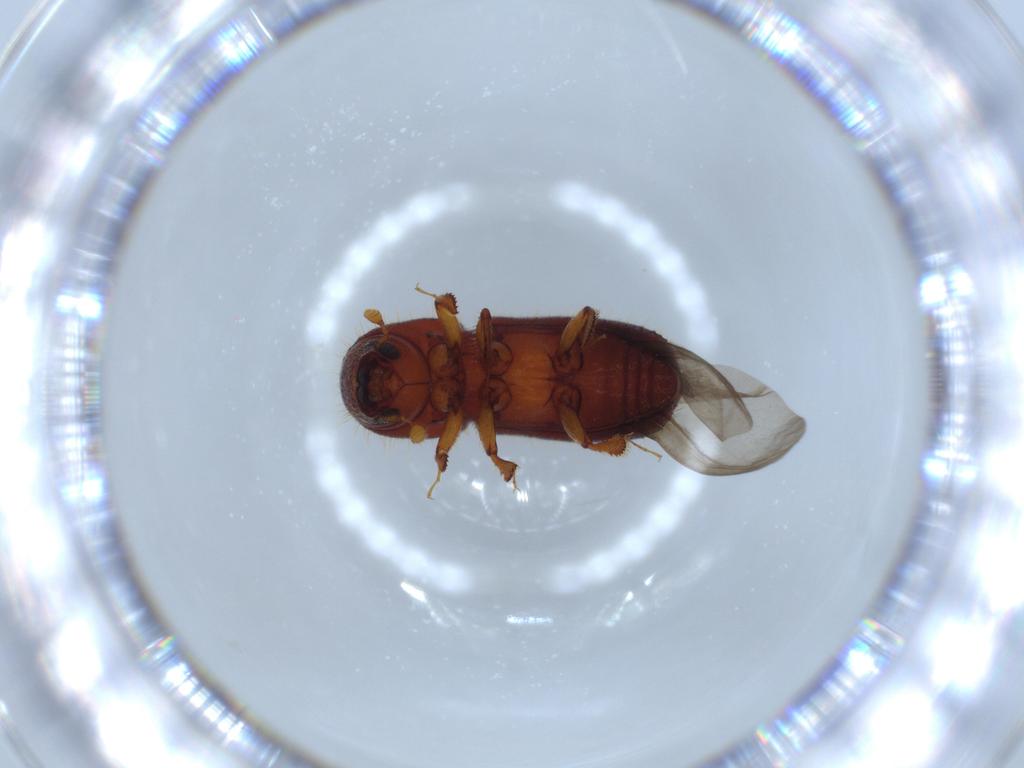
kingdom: Animalia
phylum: Arthropoda
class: Insecta
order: Coleoptera
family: Curculionidae
